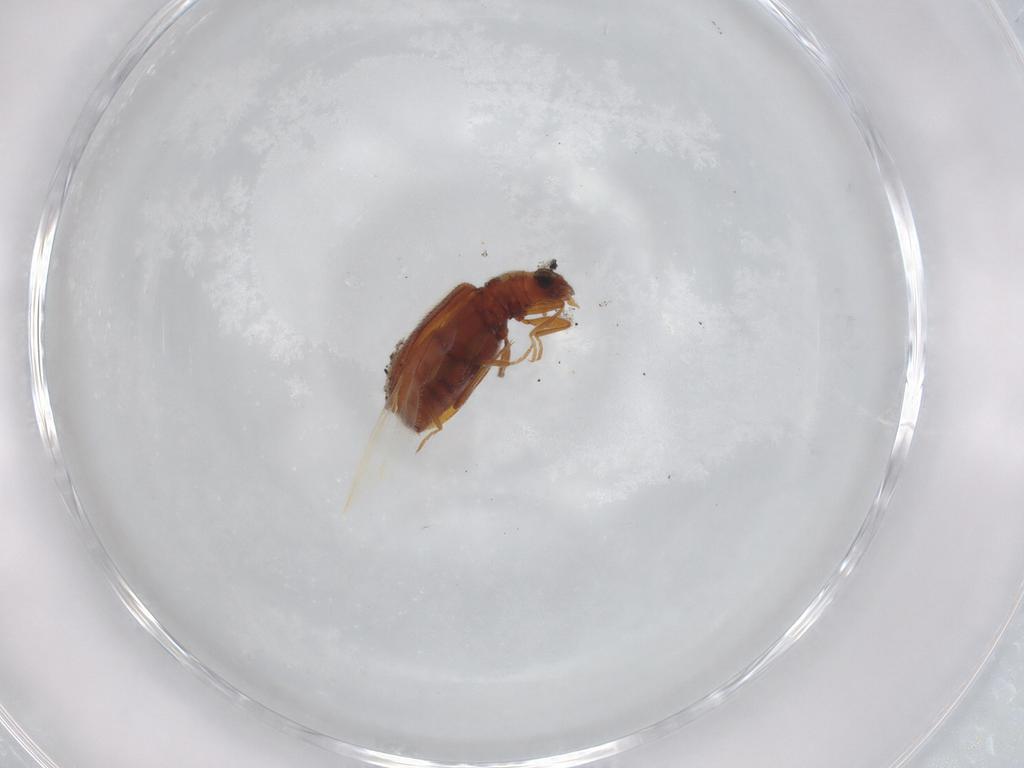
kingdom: Animalia
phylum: Arthropoda
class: Insecta
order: Coleoptera
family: Latridiidae
